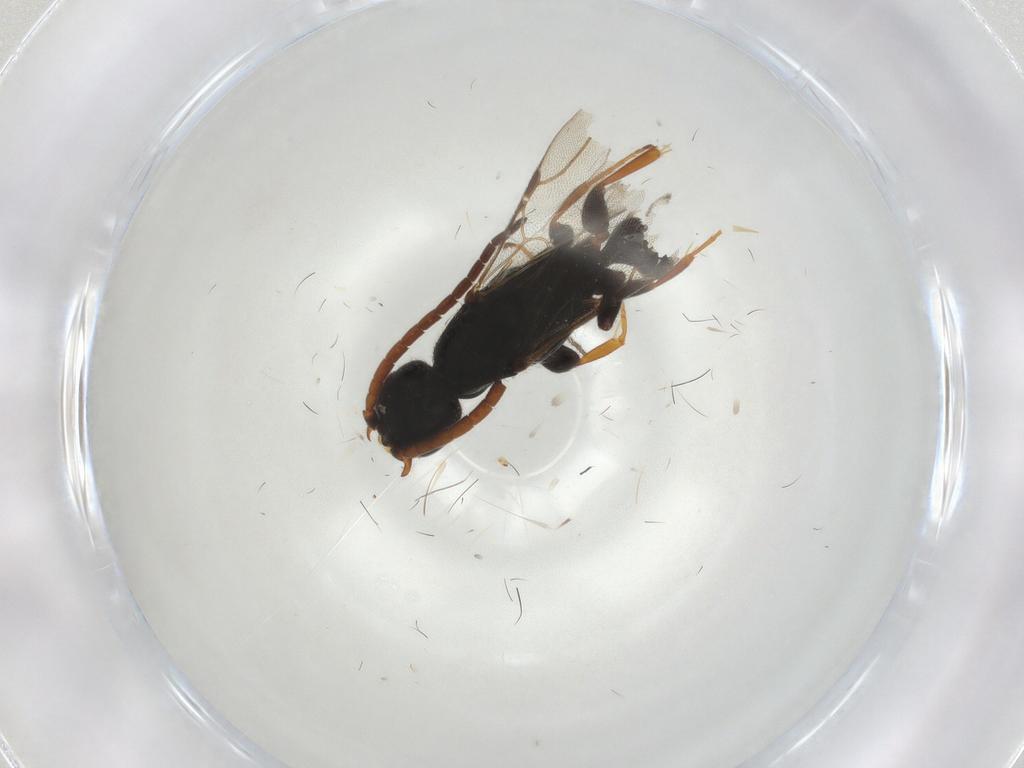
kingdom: Animalia
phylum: Arthropoda
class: Insecta
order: Hymenoptera
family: Bethylidae
